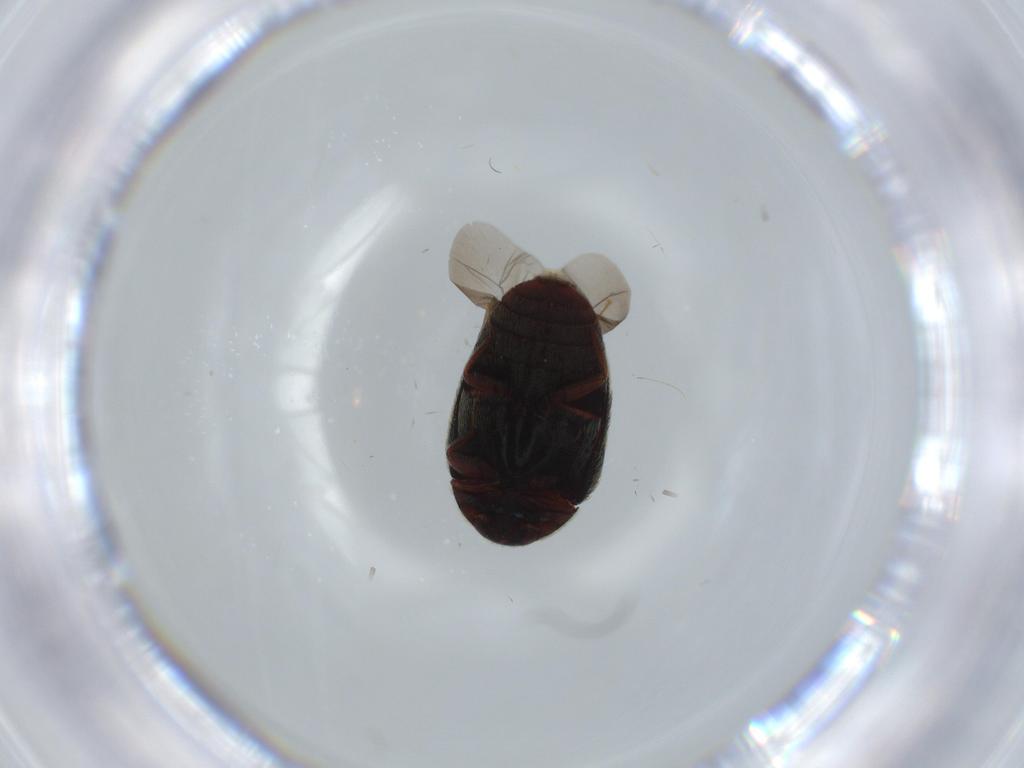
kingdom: Animalia
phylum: Arthropoda
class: Insecta
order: Coleoptera
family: Dermestidae
